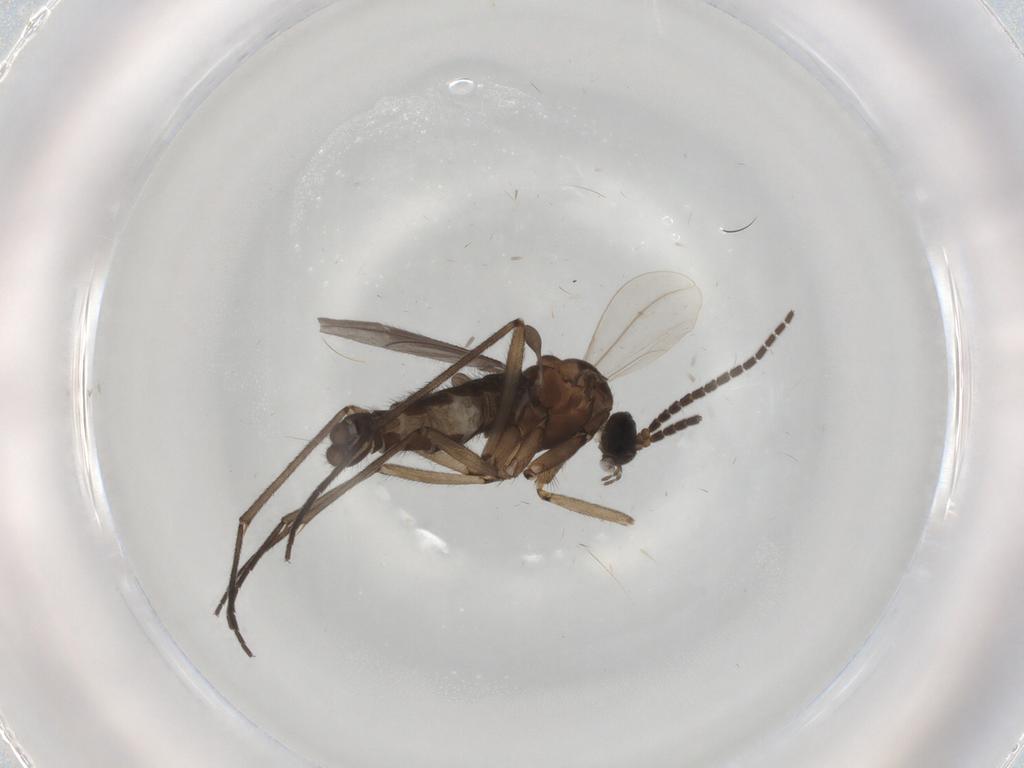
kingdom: Animalia
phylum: Arthropoda
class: Insecta
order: Diptera
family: Sciaridae
